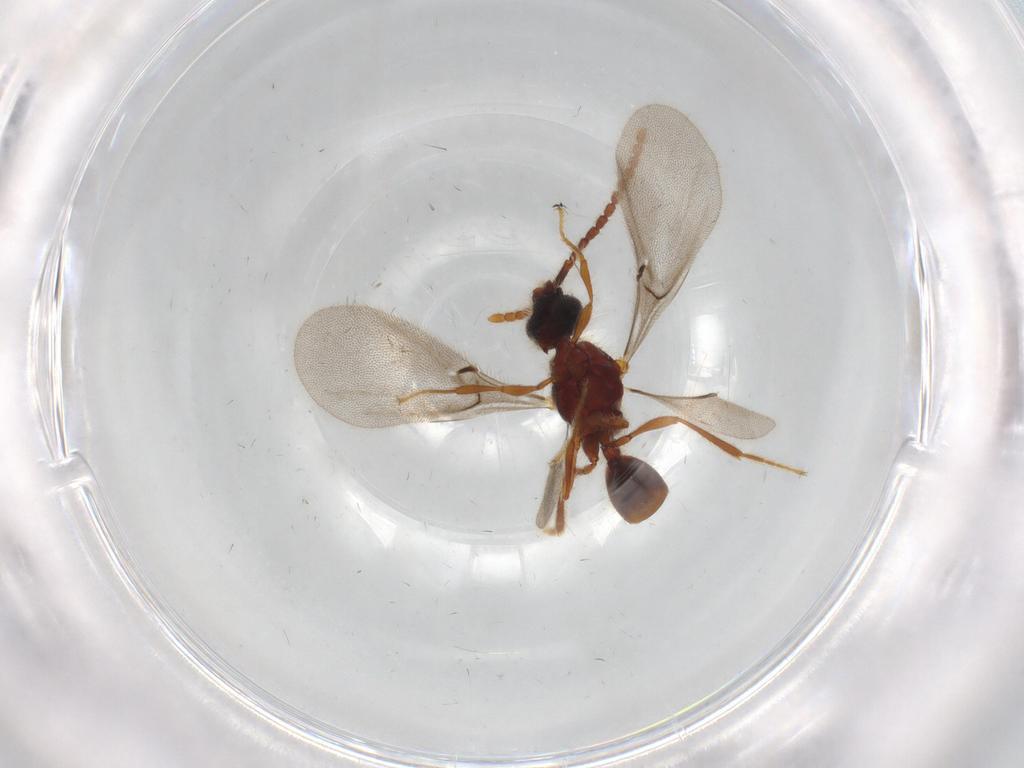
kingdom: Animalia
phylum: Arthropoda
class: Insecta
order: Hymenoptera
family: Diapriidae
